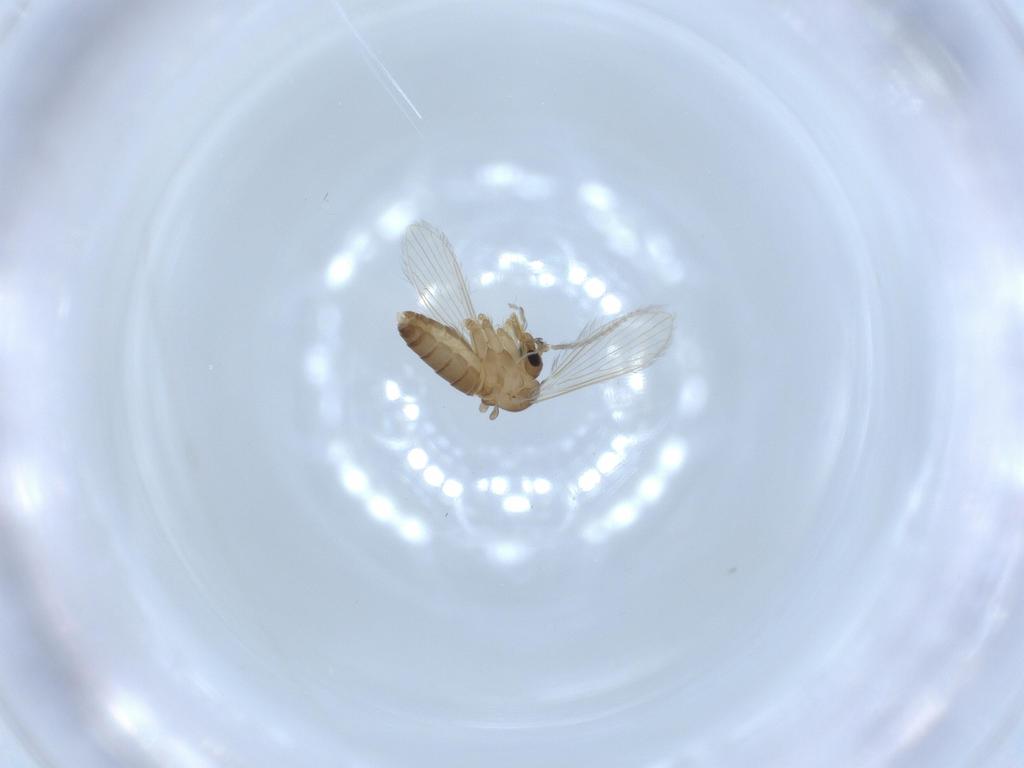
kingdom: Animalia
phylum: Arthropoda
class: Insecta
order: Diptera
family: Psychodidae
